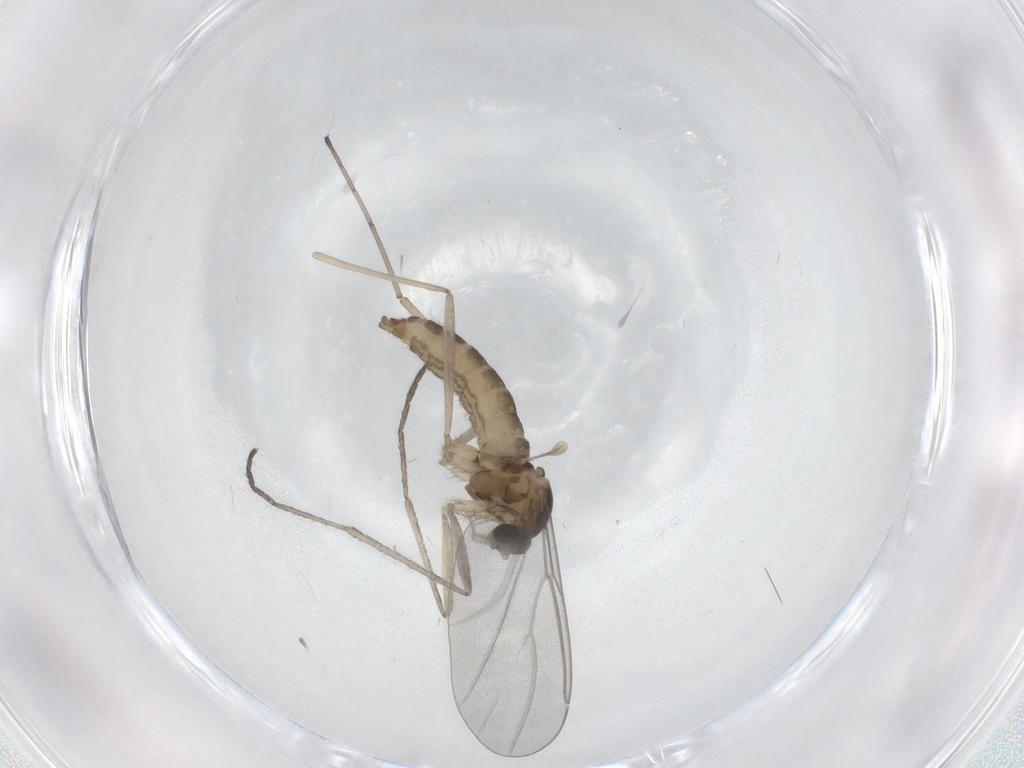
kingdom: Animalia
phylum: Arthropoda
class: Insecta
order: Diptera
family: Cecidomyiidae
